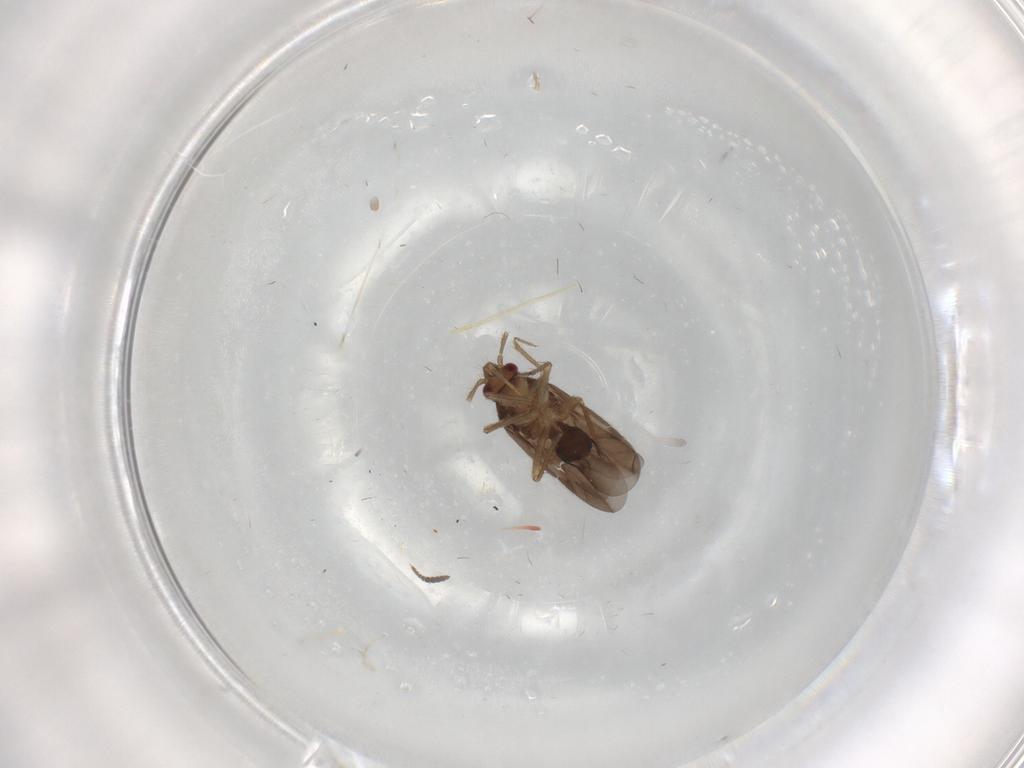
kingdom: Animalia
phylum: Arthropoda
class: Insecta
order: Hemiptera
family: Ceratocombidae
